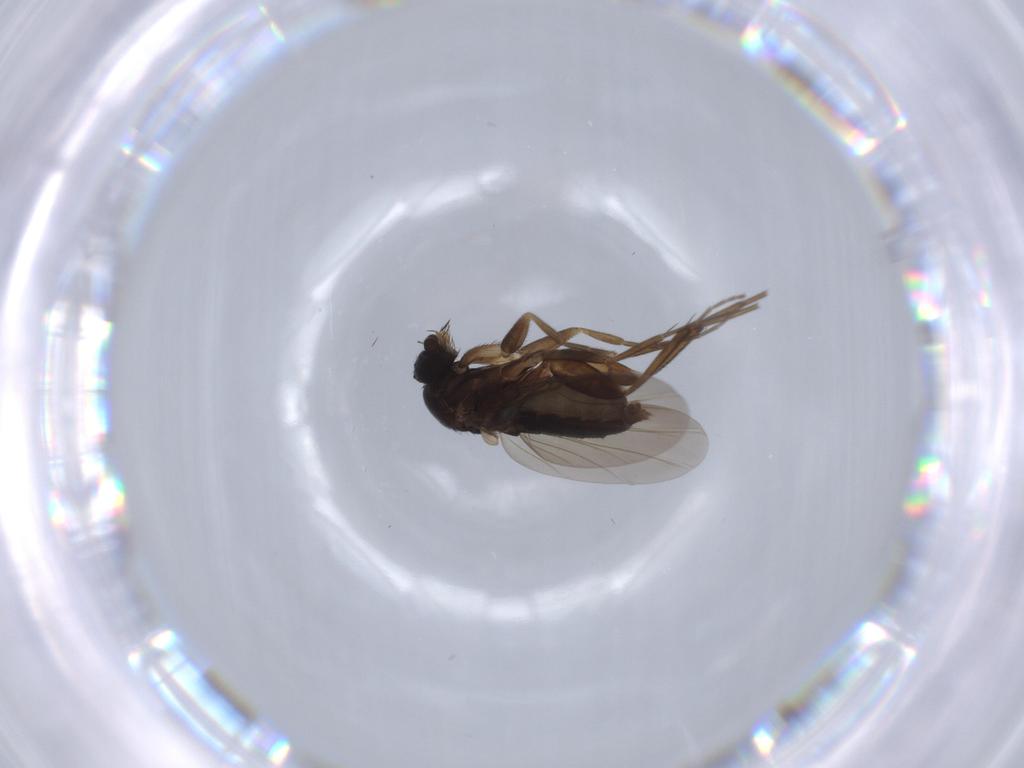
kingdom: Animalia
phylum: Arthropoda
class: Insecta
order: Diptera
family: Phoridae
